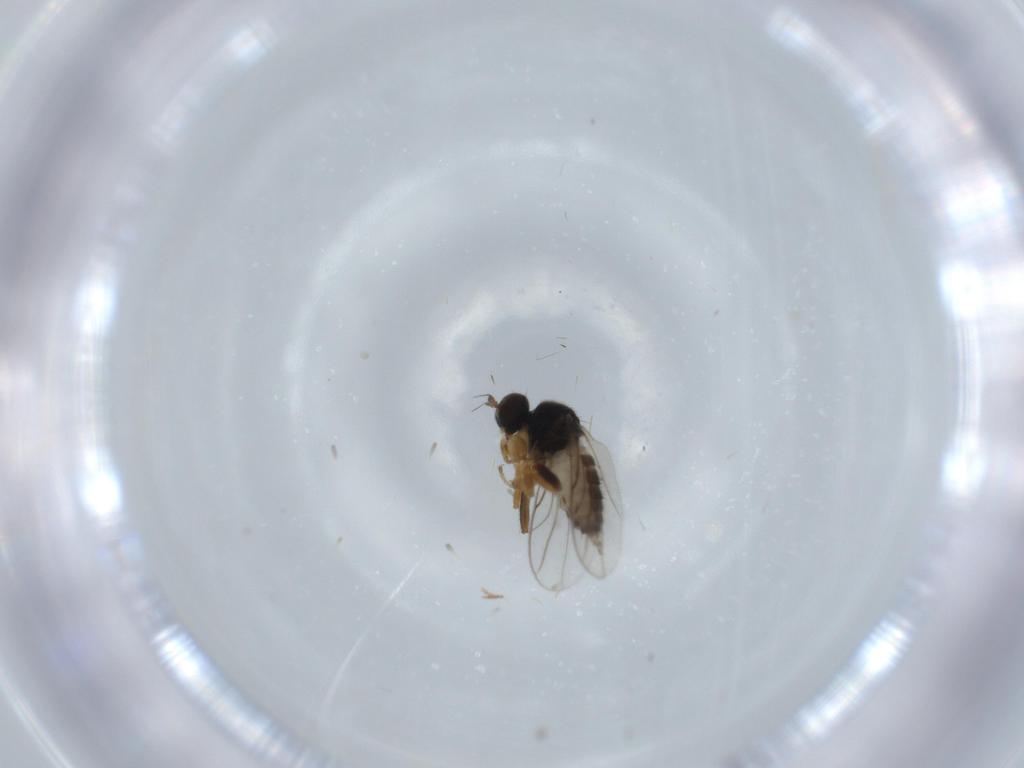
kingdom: Animalia
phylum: Arthropoda
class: Insecta
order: Diptera
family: Hybotidae
